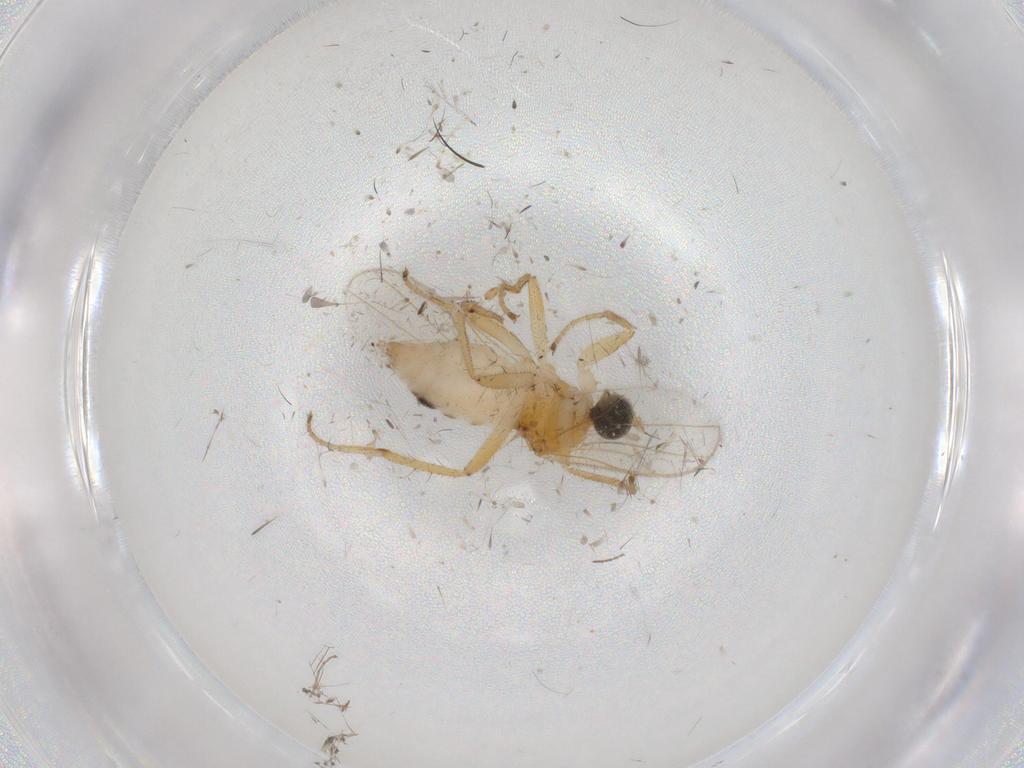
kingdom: Animalia
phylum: Arthropoda
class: Insecta
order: Diptera
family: Hybotidae
